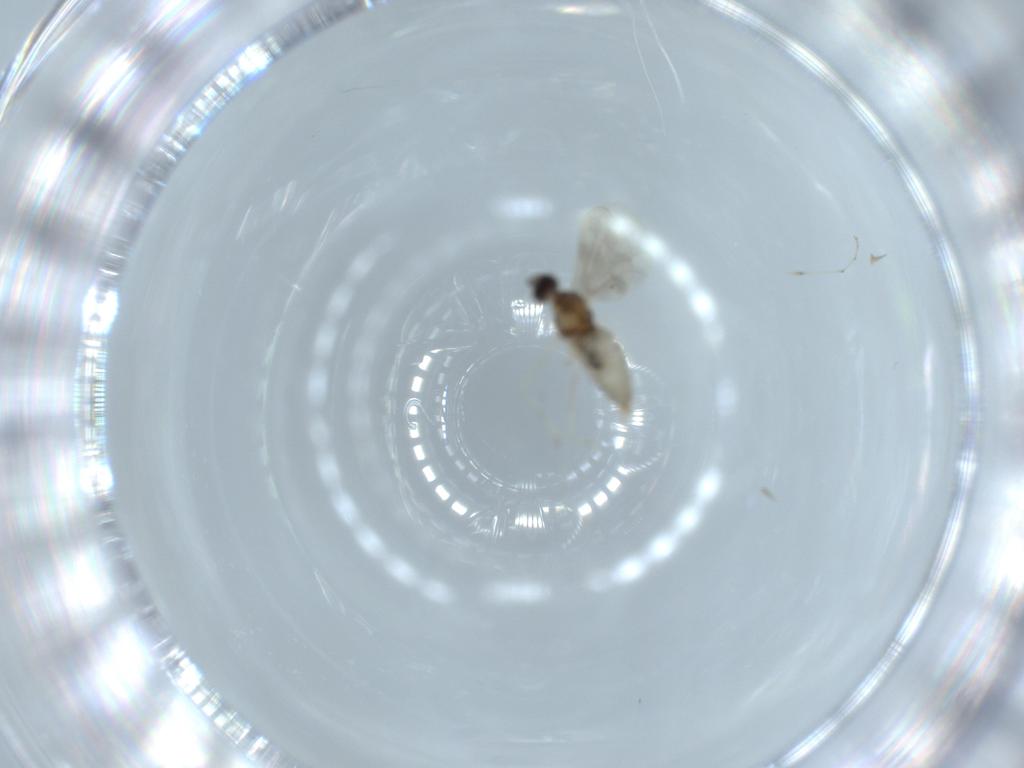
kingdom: Animalia
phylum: Arthropoda
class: Insecta
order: Diptera
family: Cecidomyiidae
